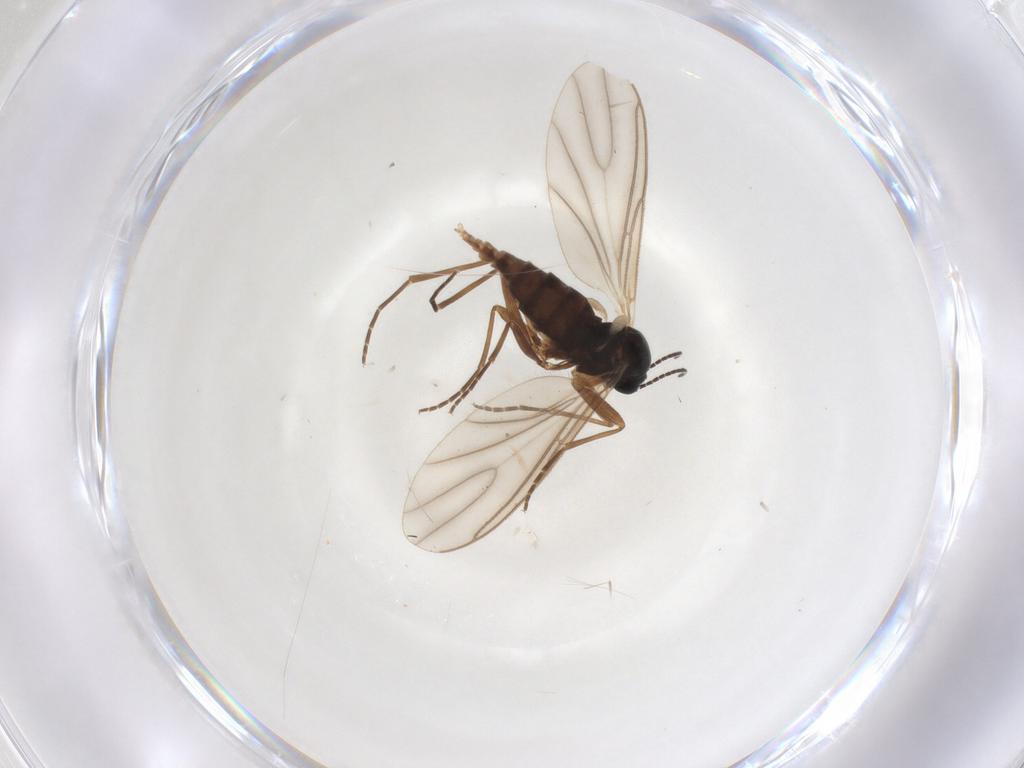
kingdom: Animalia
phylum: Arthropoda
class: Insecta
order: Diptera
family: Sciaridae
